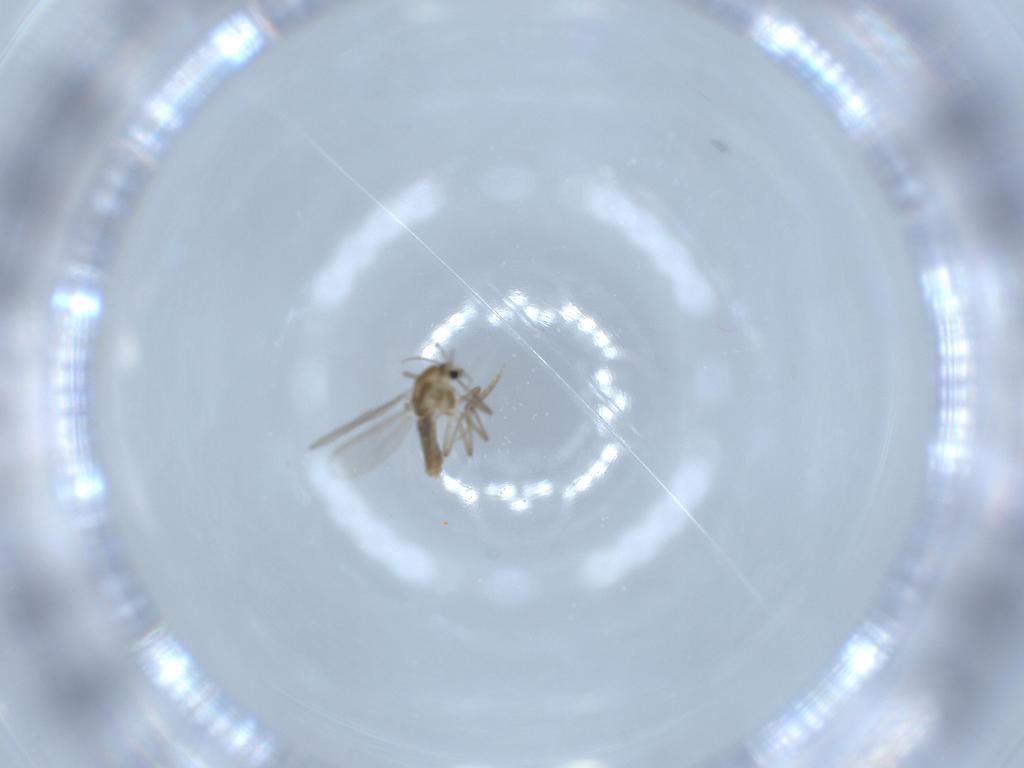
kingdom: Animalia
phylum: Arthropoda
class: Insecta
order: Diptera
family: Chironomidae
